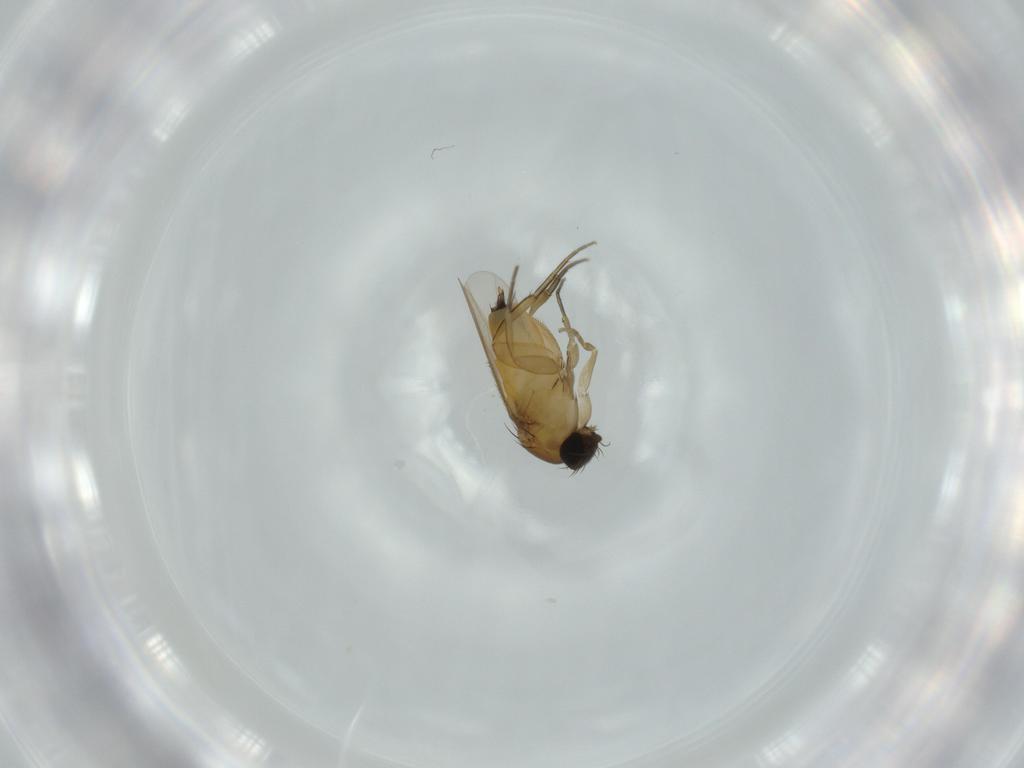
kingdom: Animalia
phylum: Arthropoda
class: Insecta
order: Diptera
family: Phoridae
